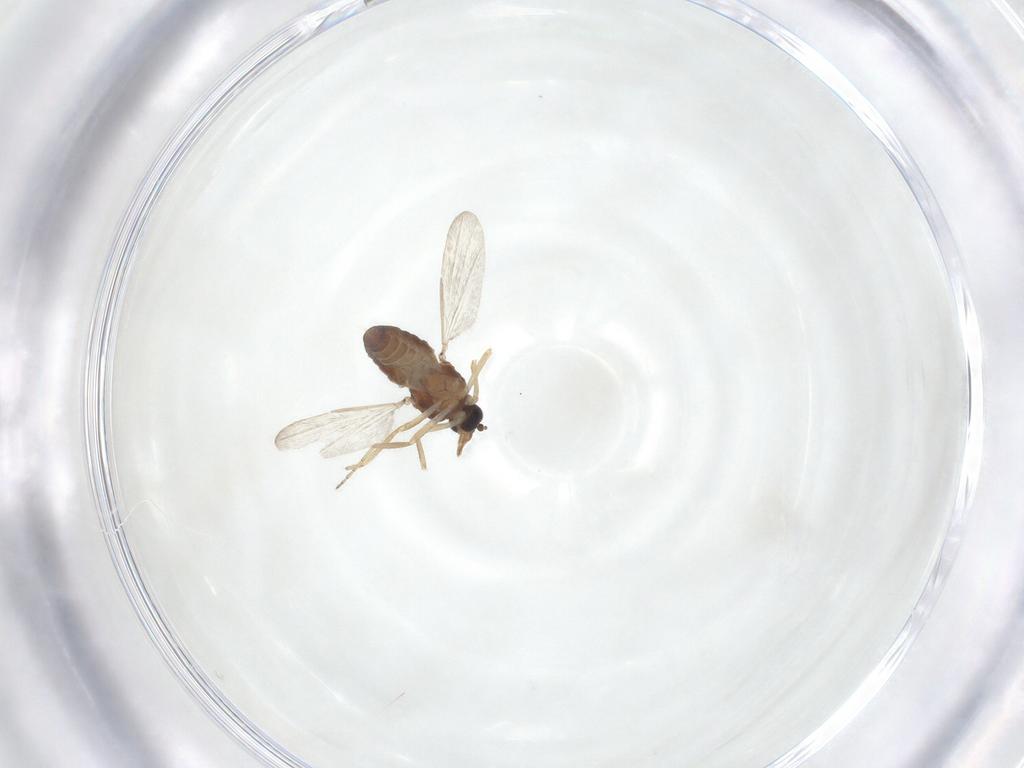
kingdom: Animalia
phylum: Arthropoda
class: Insecta
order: Diptera
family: Ceratopogonidae
